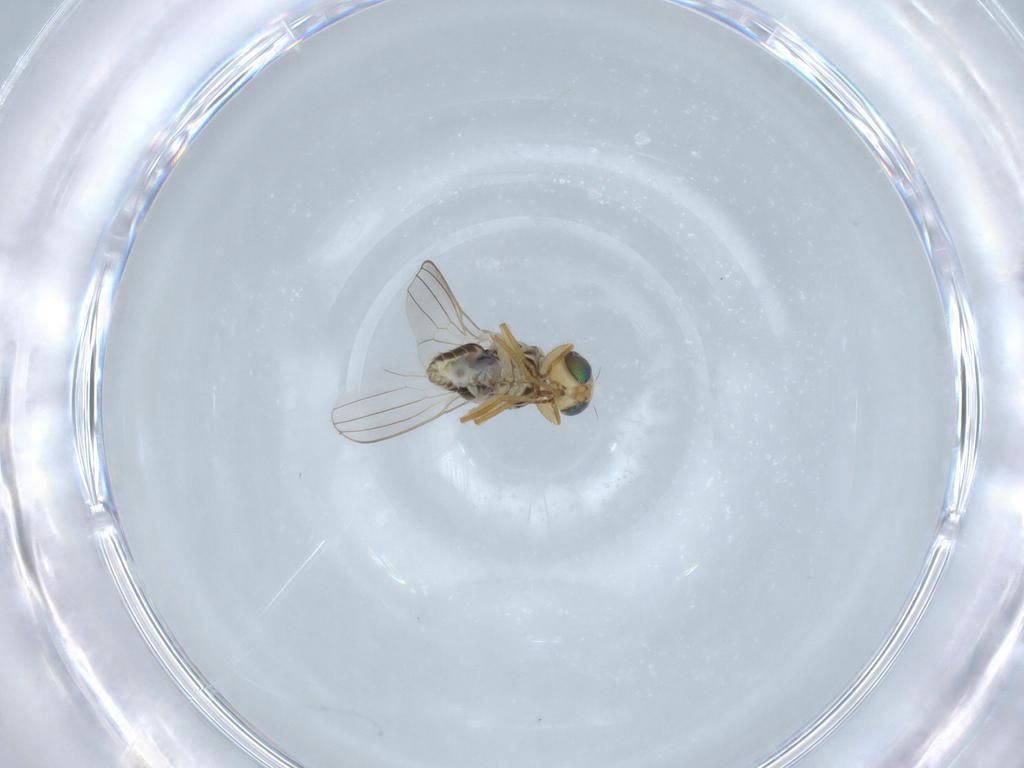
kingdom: Animalia
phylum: Arthropoda
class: Insecta
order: Diptera
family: Chyromyidae
